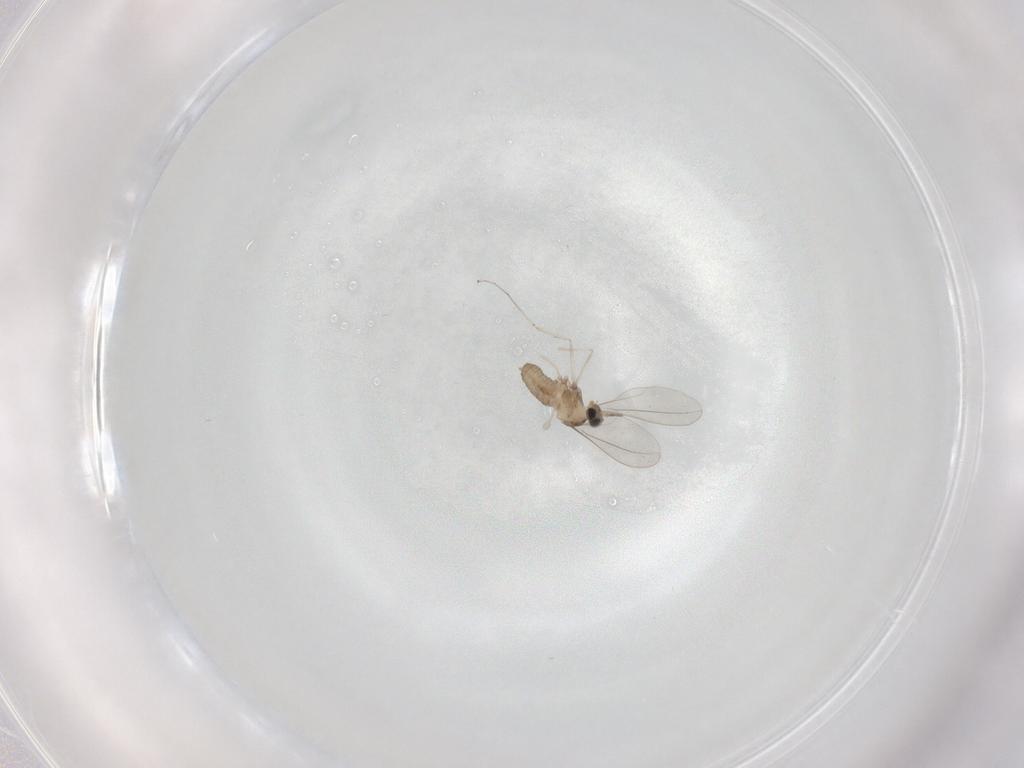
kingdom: Animalia
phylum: Arthropoda
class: Insecta
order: Diptera
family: Cecidomyiidae
